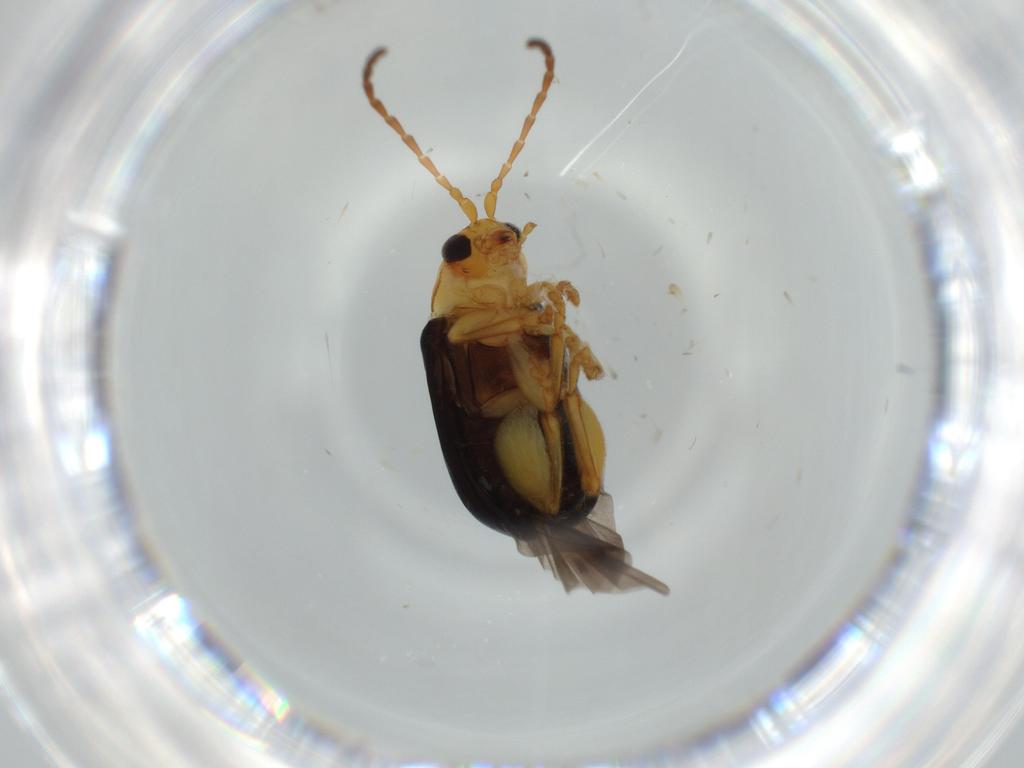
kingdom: Animalia
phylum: Arthropoda
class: Insecta
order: Coleoptera
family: Chrysomelidae
